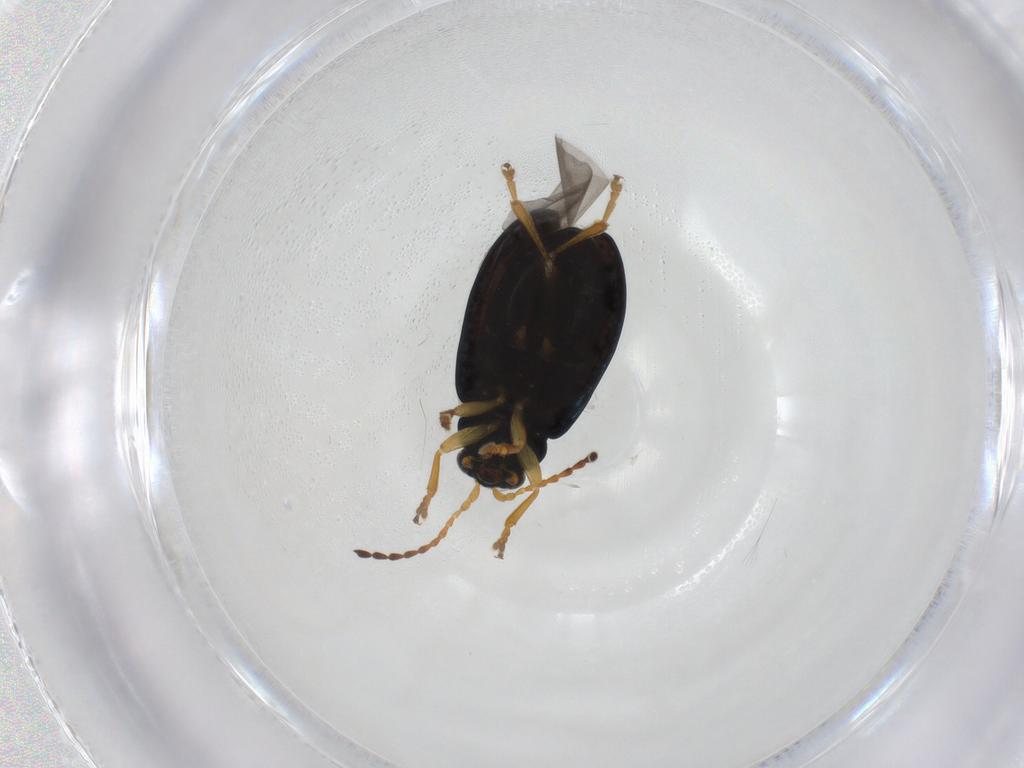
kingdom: Animalia
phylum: Arthropoda
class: Insecta
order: Coleoptera
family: Chrysomelidae
